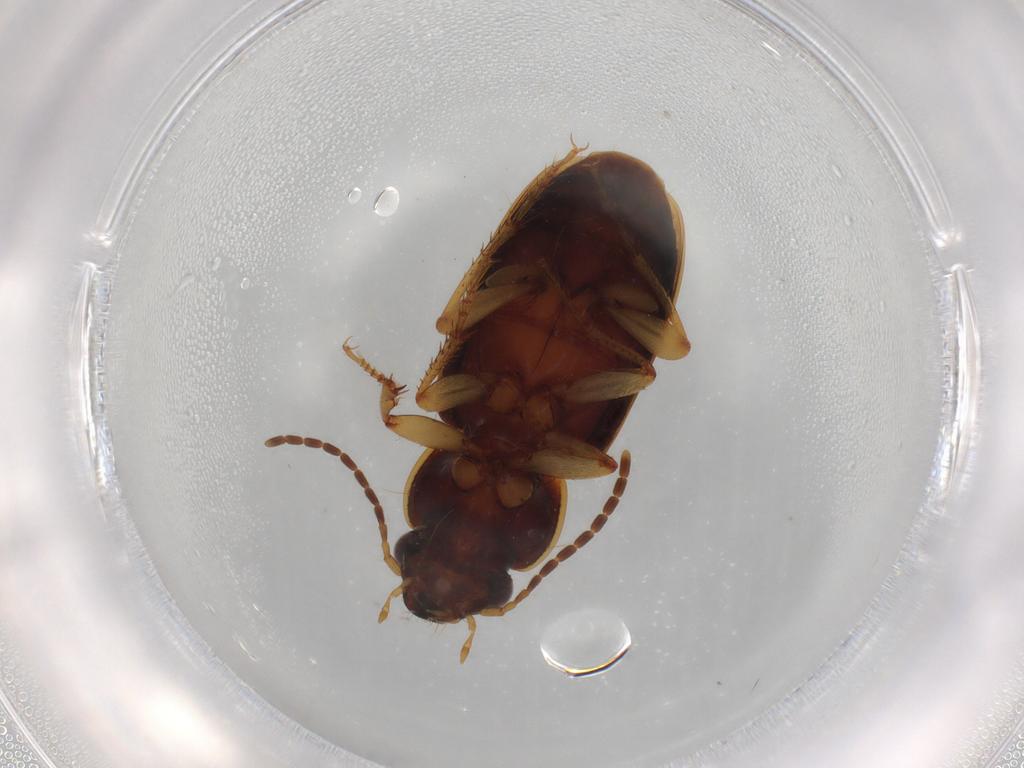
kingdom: Animalia
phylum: Arthropoda
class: Insecta
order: Coleoptera
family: Carabidae
